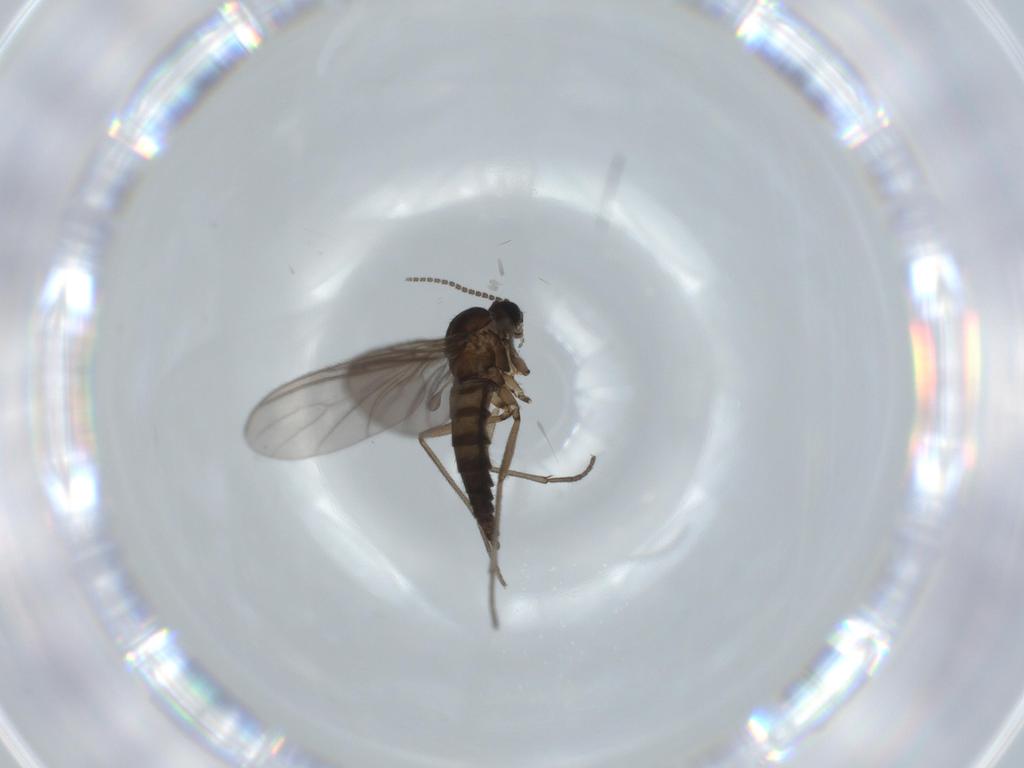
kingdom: Animalia
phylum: Arthropoda
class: Insecta
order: Diptera
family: Sciaridae
